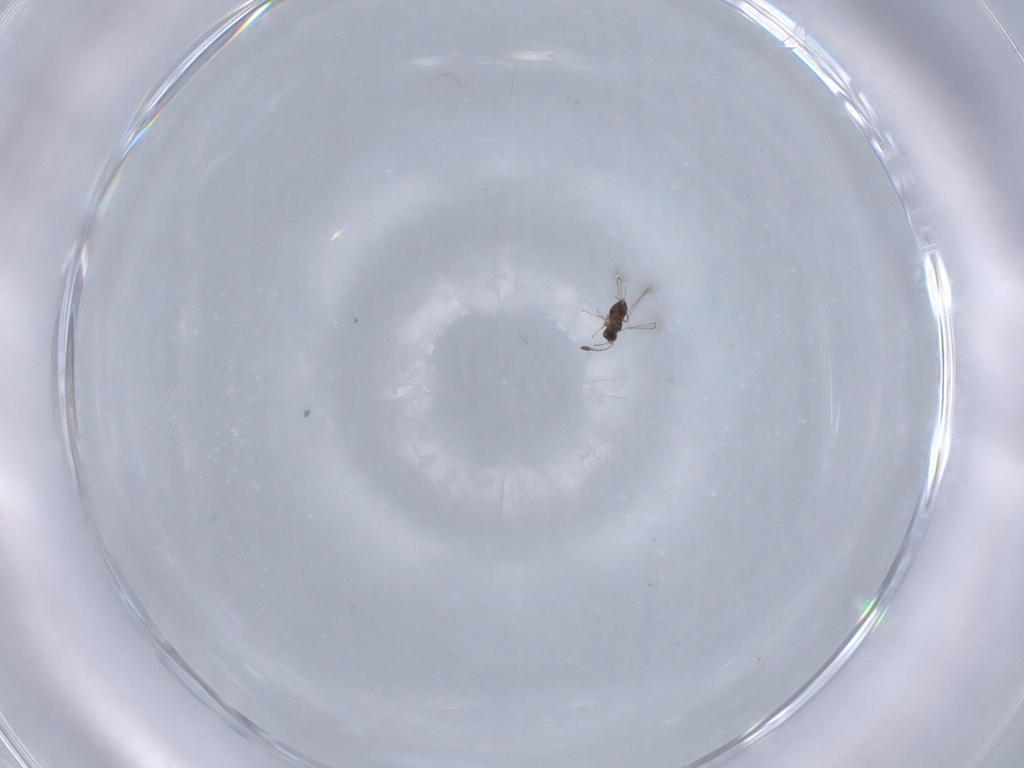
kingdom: Animalia
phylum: Arthropoda
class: Insecta
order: Hymenoptera
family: Mymaridae
